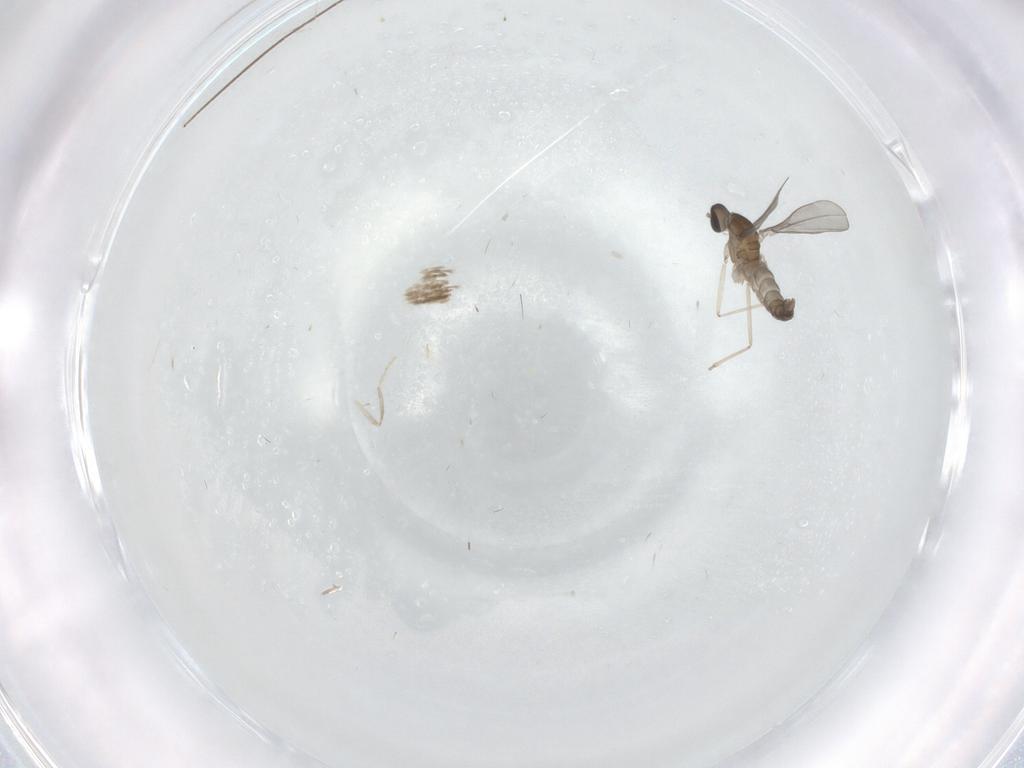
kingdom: Animalia
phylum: Arthropoda
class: Insecta
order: Diptera
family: Cecidomyiidae
